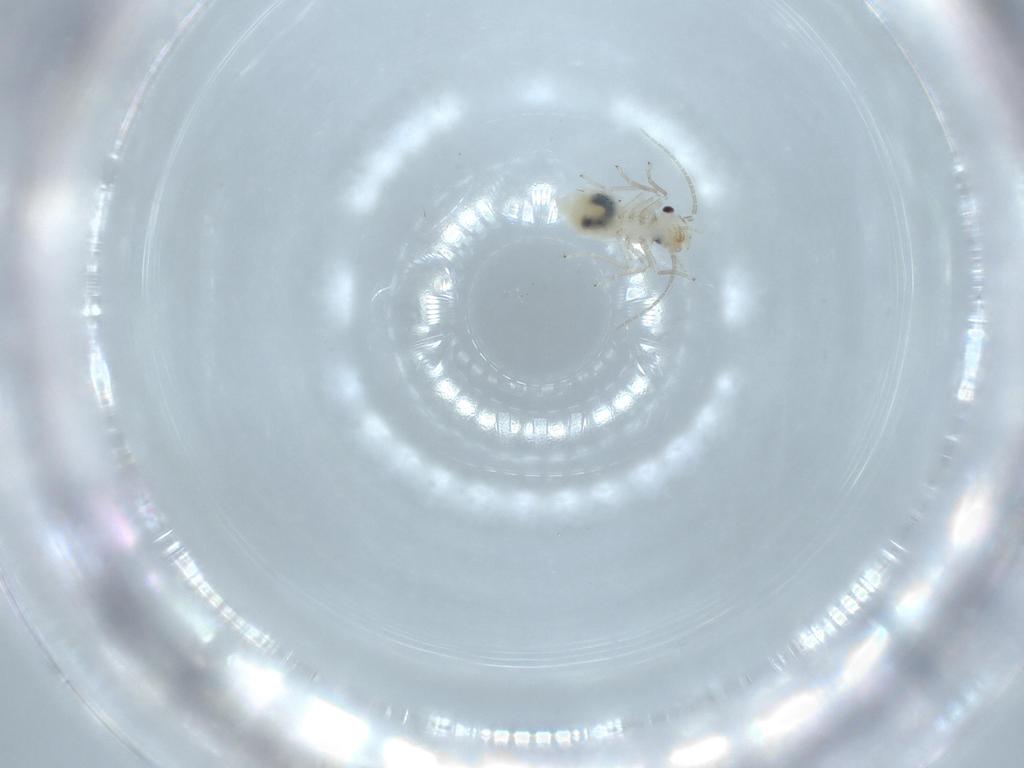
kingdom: Animalia
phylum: Arthropoda
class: Insecta
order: Psocodea
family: Caeciliusidae
